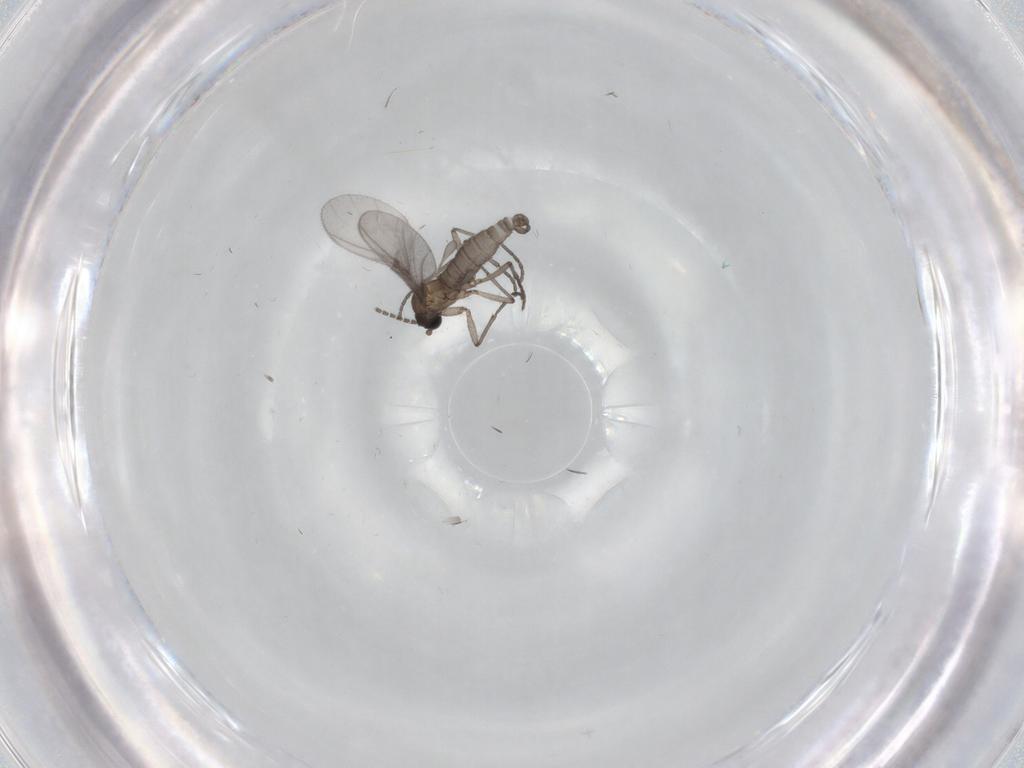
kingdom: Animalia
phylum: Arthropoda
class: Insecta
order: Diptera
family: Sciaridae
